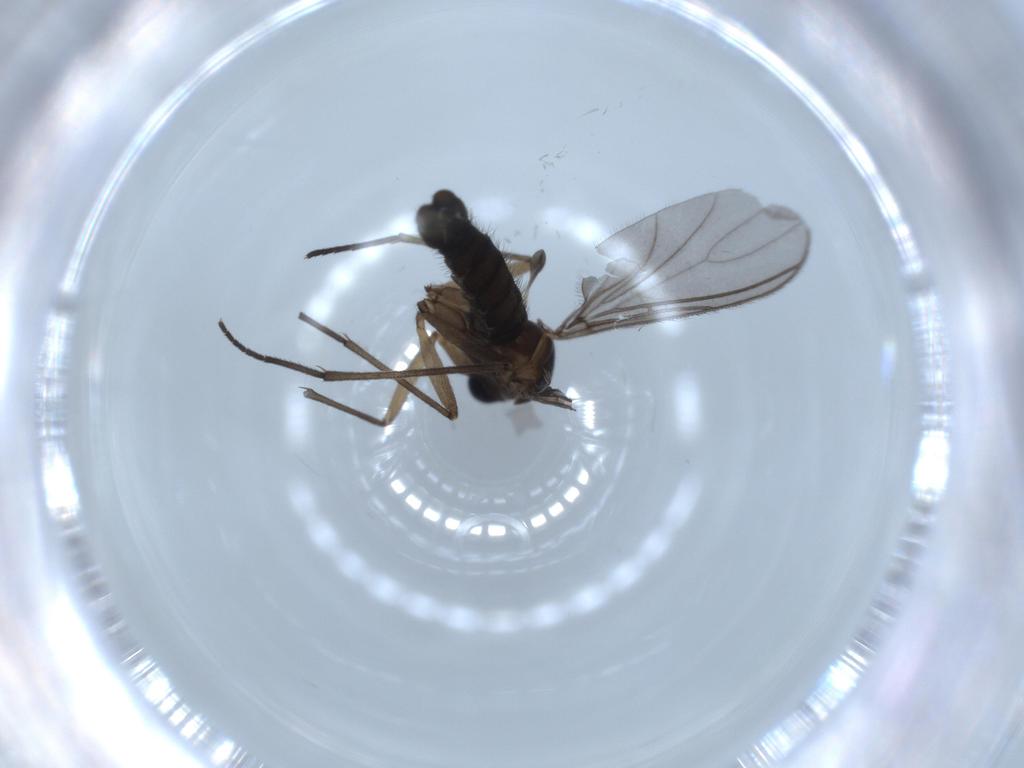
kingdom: Animalia
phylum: Arthropoda
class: Insecta
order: Diptera
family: Sciaridae
